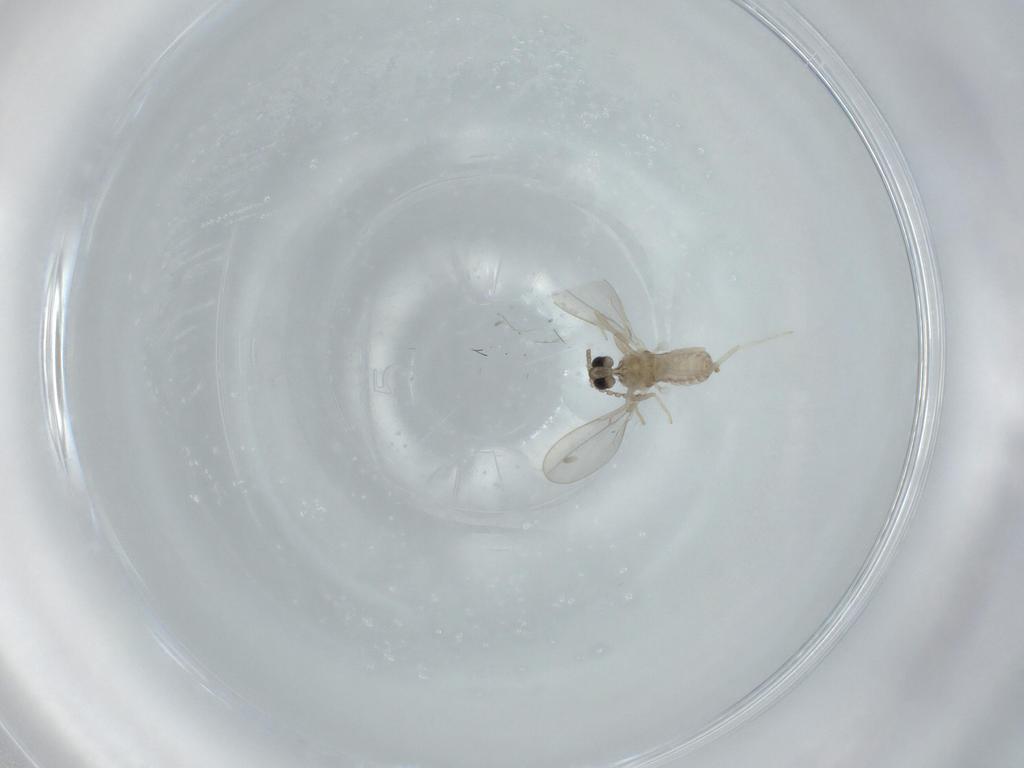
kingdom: Animalia
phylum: Arthropoda
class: Insecta
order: Diptera
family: Cecidomyiidae
